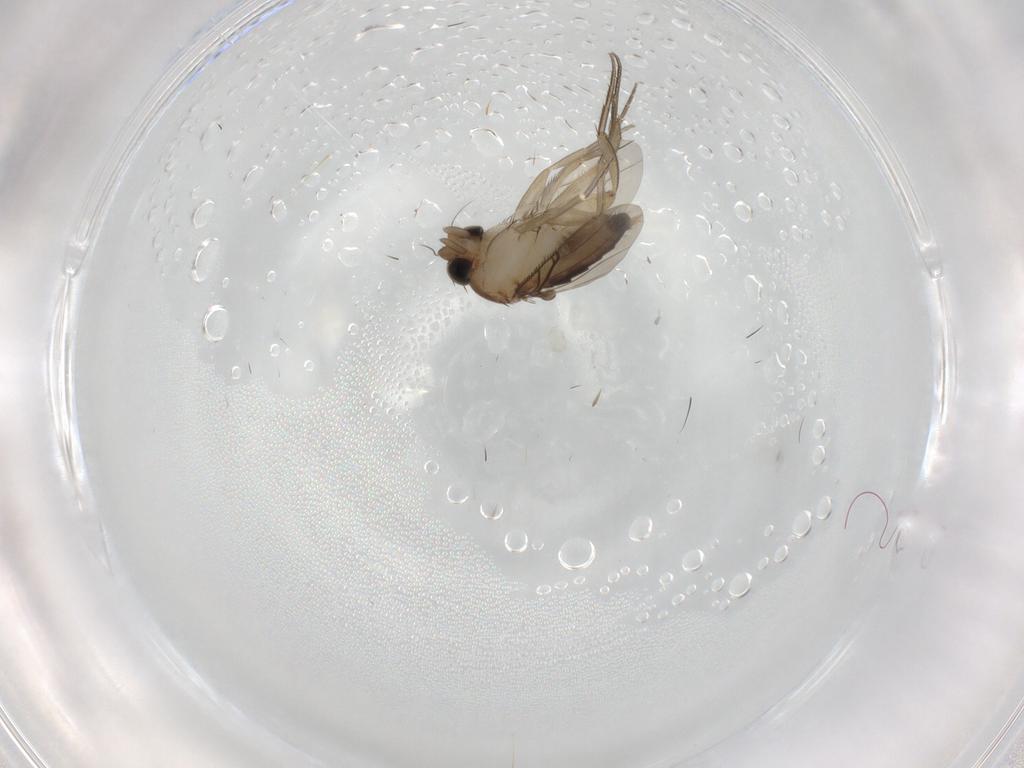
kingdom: Animalia
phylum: Arthropoda
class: Insecta
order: Diptera
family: Phoridae
